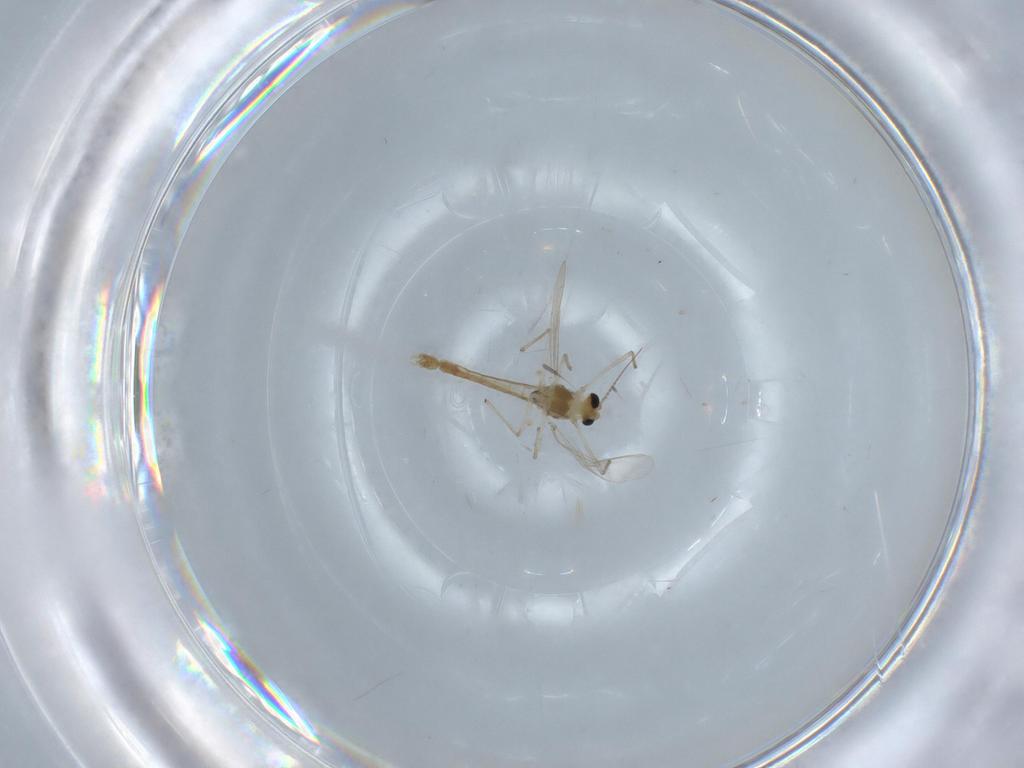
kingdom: Animalia
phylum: Arthropoda
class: Insecta
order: Diptera
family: Chironomidae
